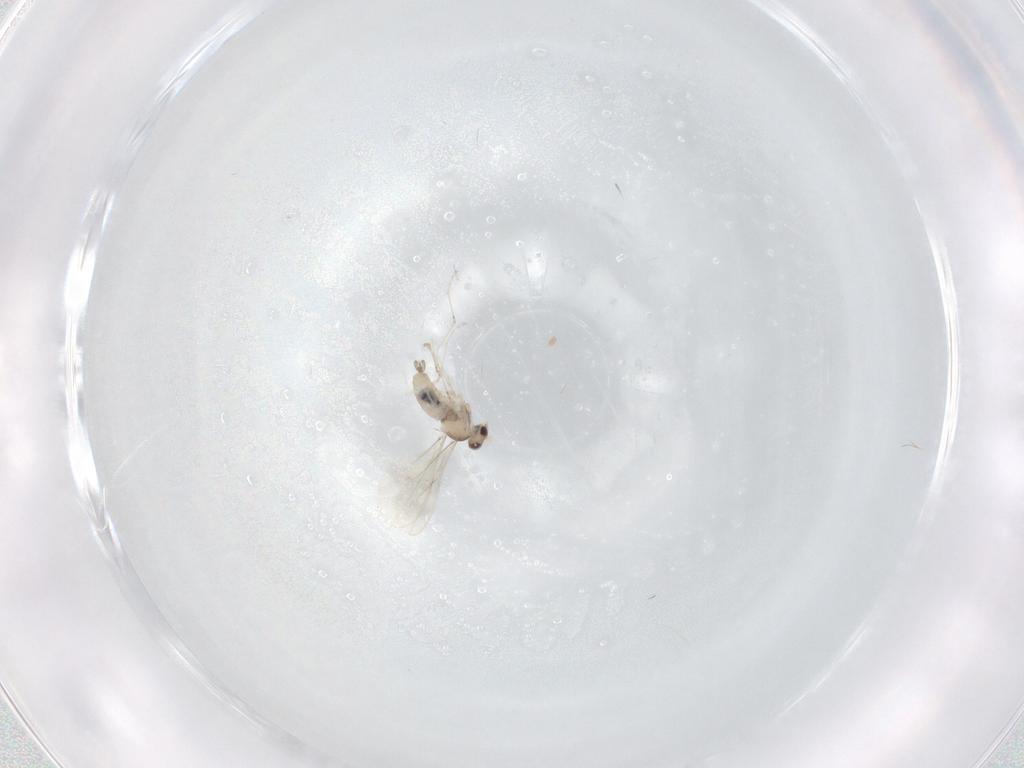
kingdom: Animalia
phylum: Arthropoda
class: Insecta
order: Diptera
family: Cecidomyiidae
